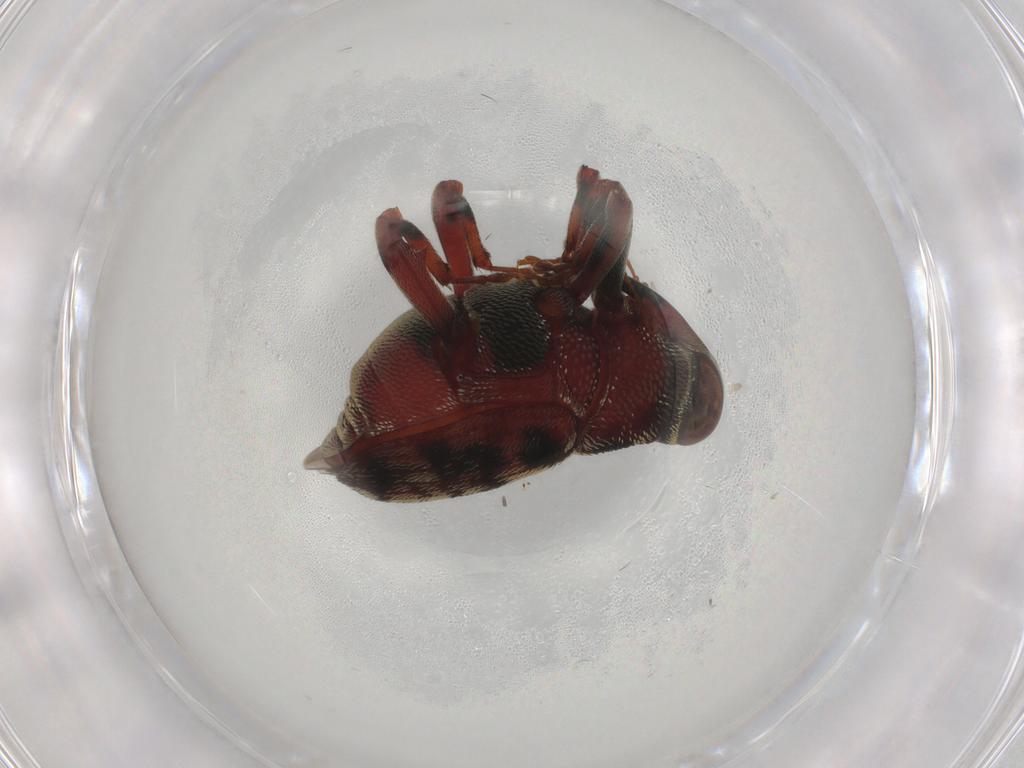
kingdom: Animalia
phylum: Arthropoda
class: Insecta
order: Coleoptera
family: Curculionidae
